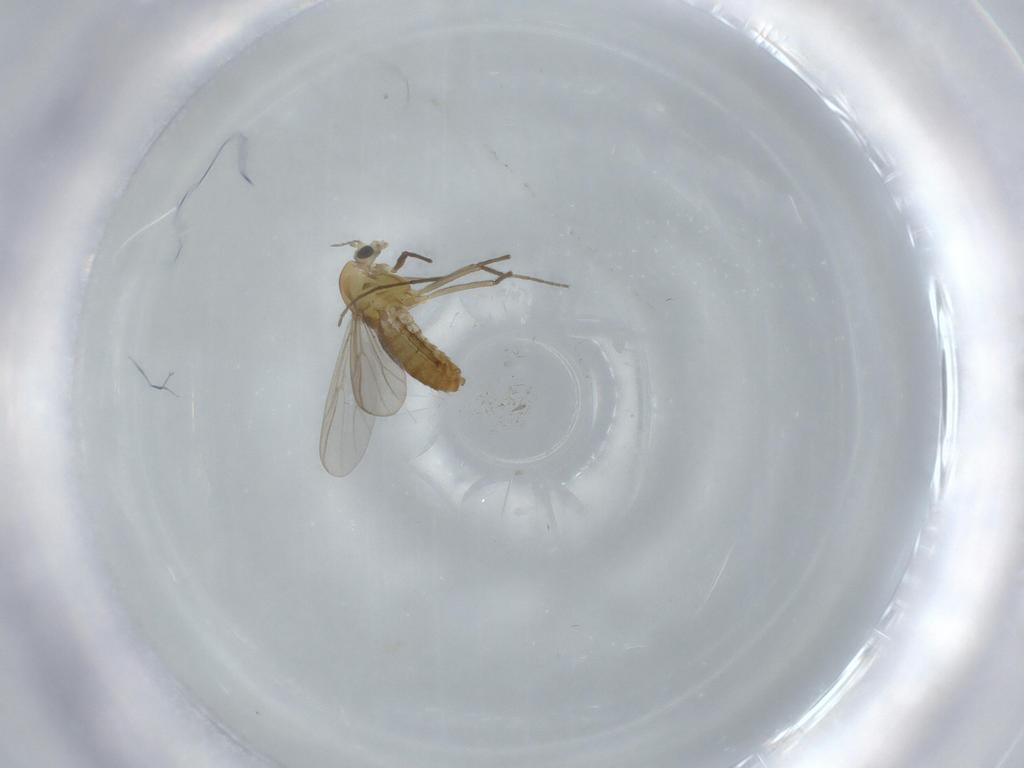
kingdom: Animalia
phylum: Arthropoda
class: Insecta
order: Diptera
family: Chironomidae
